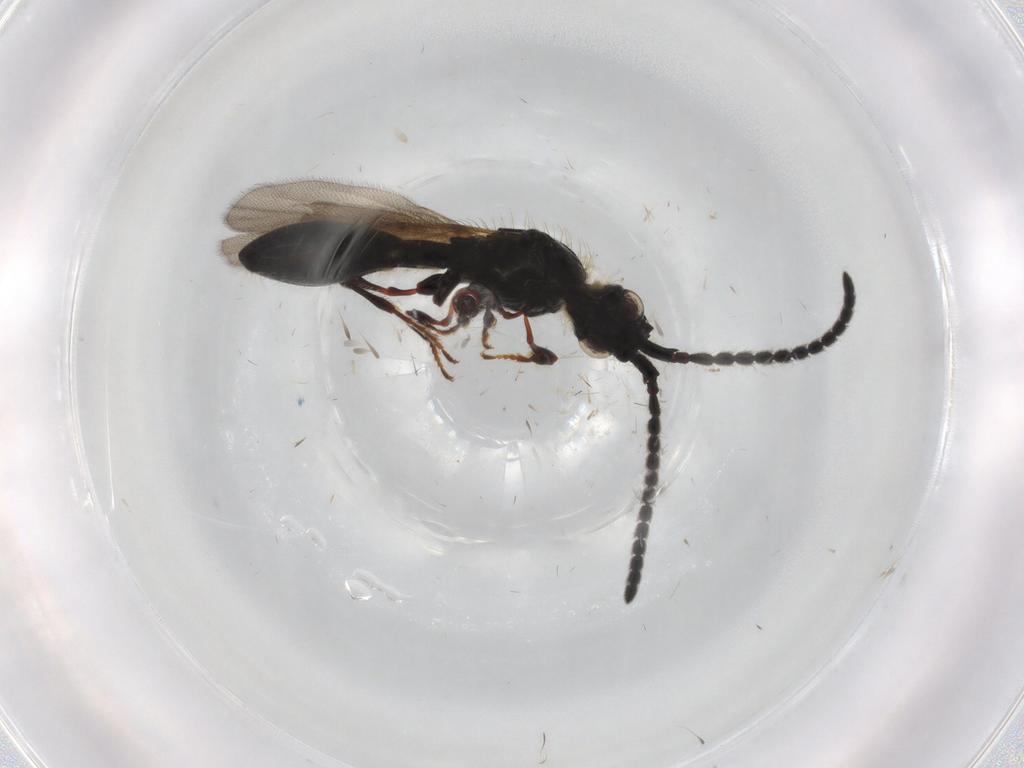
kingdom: Animalia
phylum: Arthropoda
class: Insecta
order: Hymenoptera
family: Diapriidae
